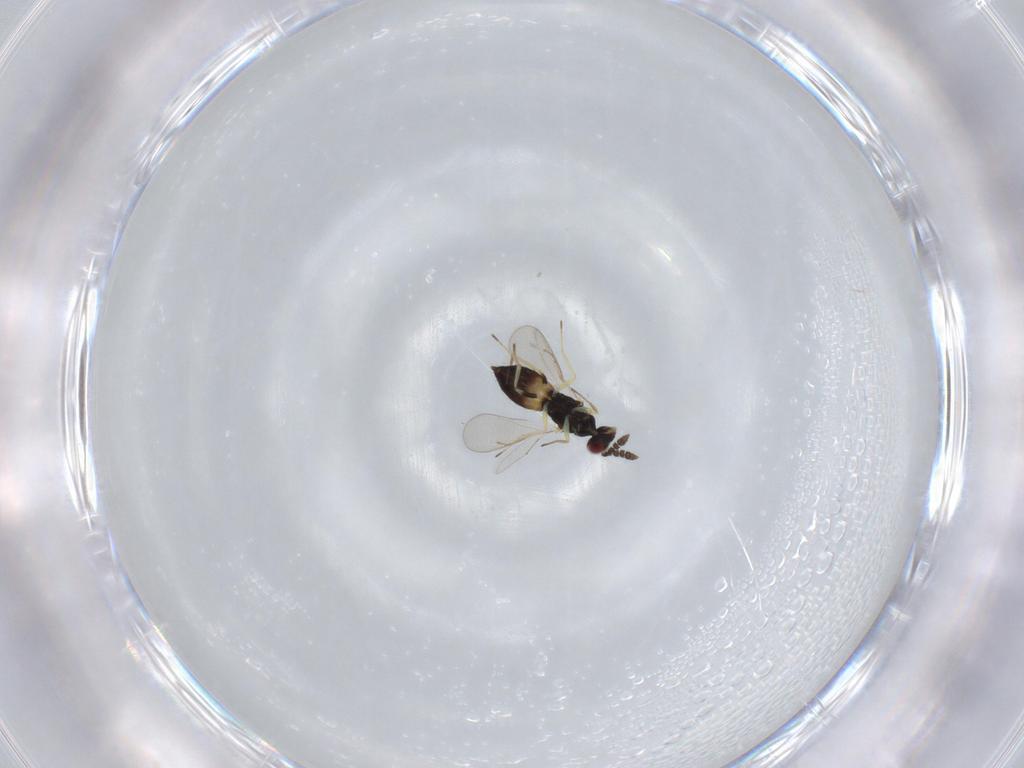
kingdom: Animalia
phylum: Arthropoda
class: Insecta
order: Hymenoptera
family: Eulophidae
